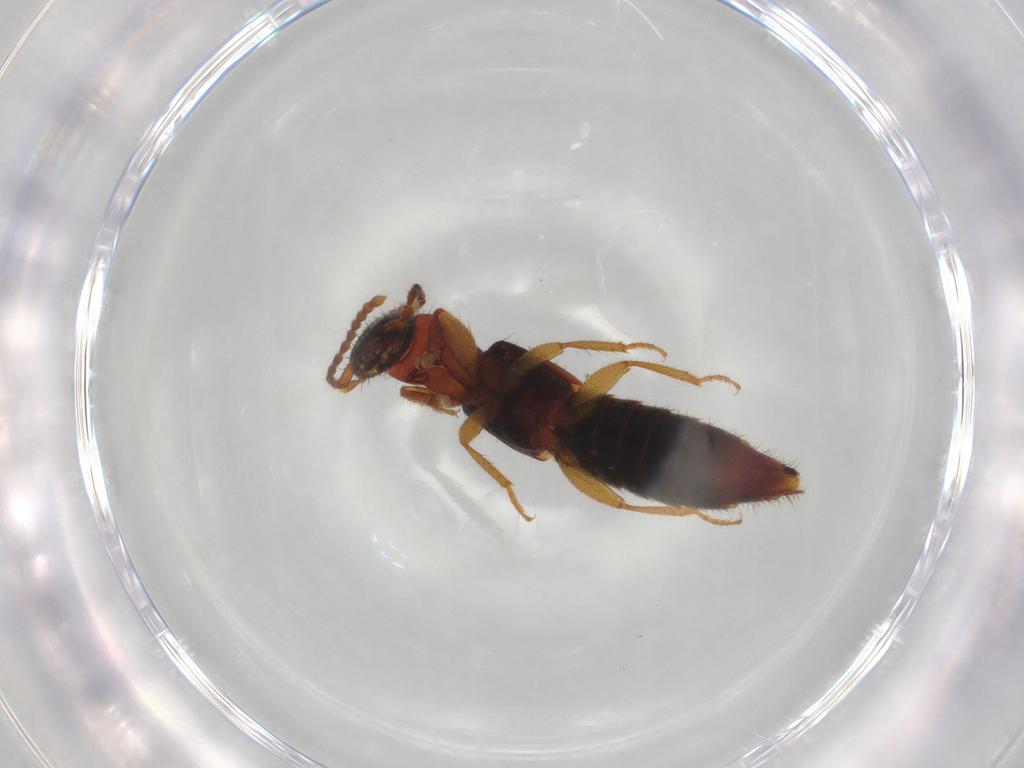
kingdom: Animalia
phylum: Arthropoda
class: Insecta
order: Coleoptera
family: Staphylinidae
